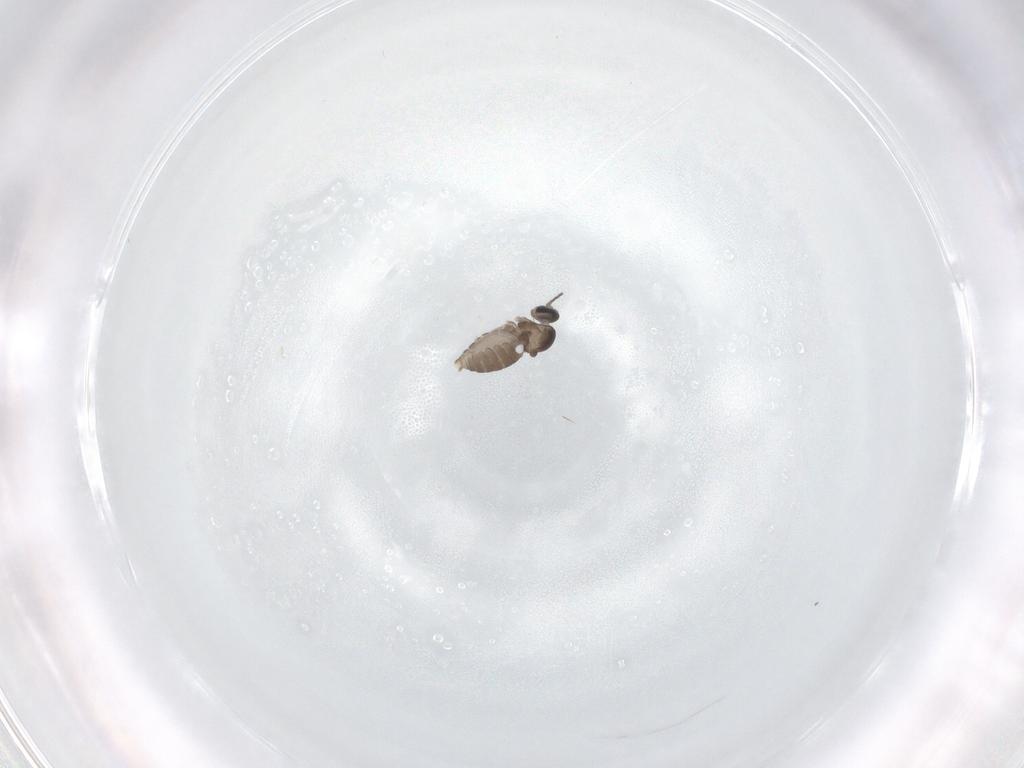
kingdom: Animalia
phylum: Arthropoda
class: Insecta
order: Diptera
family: Cecidomyiidae
